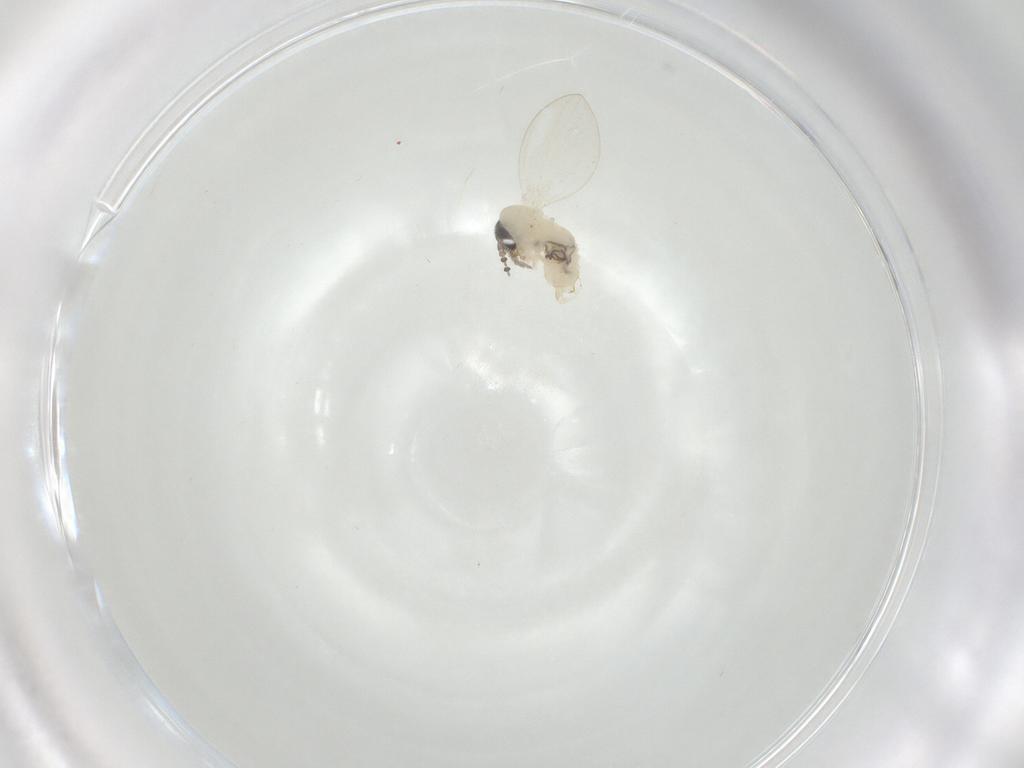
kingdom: Animalia
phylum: Arthropoda
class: Insecta
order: Diptera
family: Psychodidae
